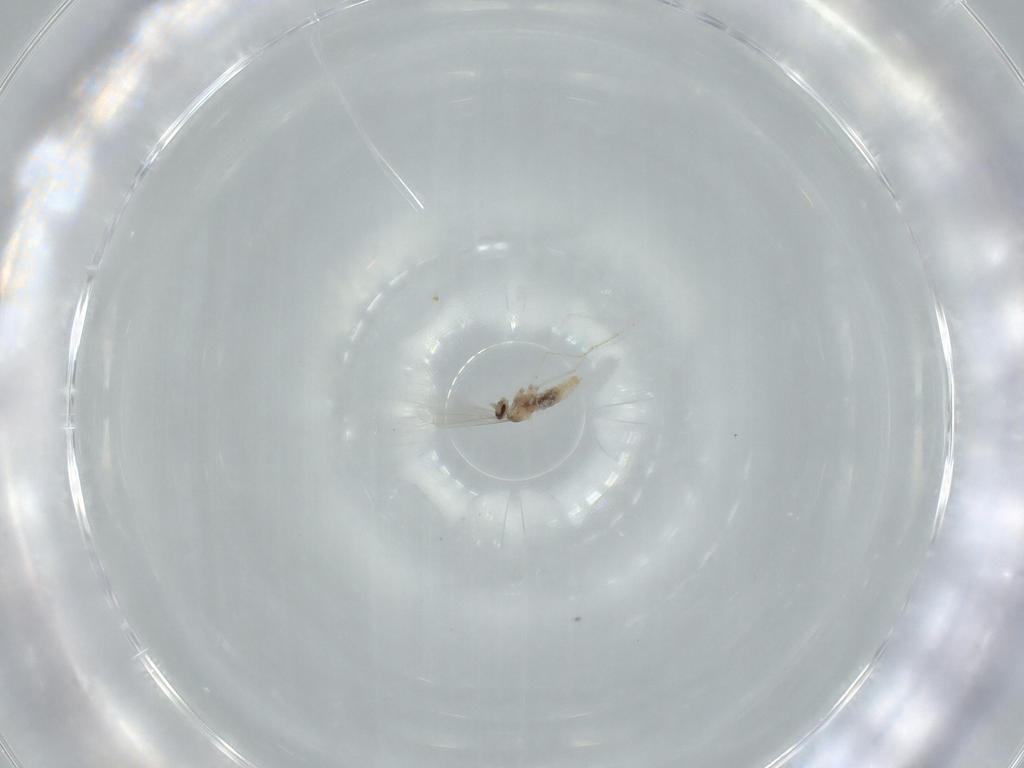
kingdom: Animalia
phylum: Arthropoda
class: Insecta
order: Diptera
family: Cecidomyiidae
